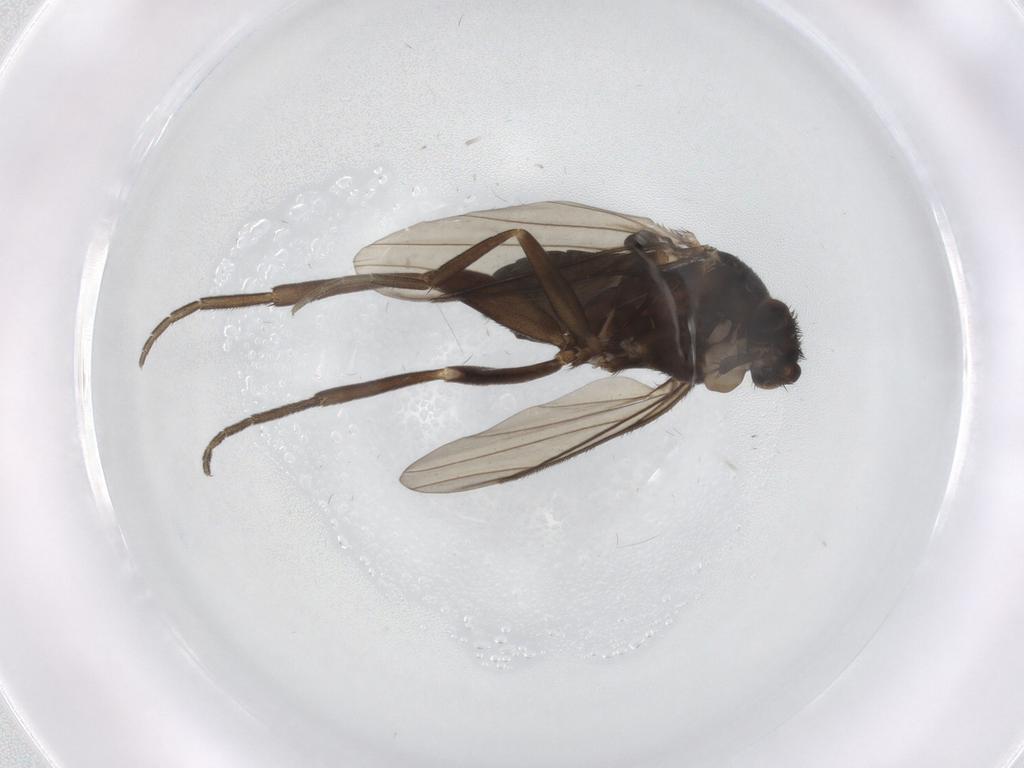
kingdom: Animalia
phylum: Arthropoda
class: Insecta
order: Diptera
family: Phoridae
